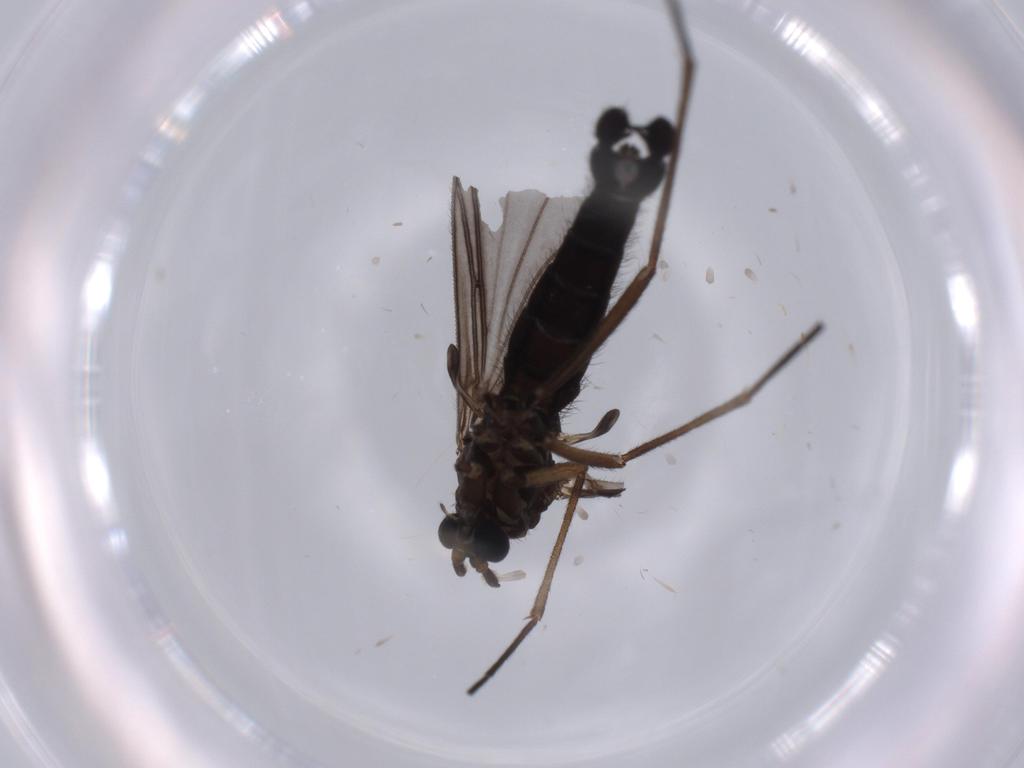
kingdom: Animalia
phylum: Arthropoda
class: Insecta
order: Diptera
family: Sciaridae
